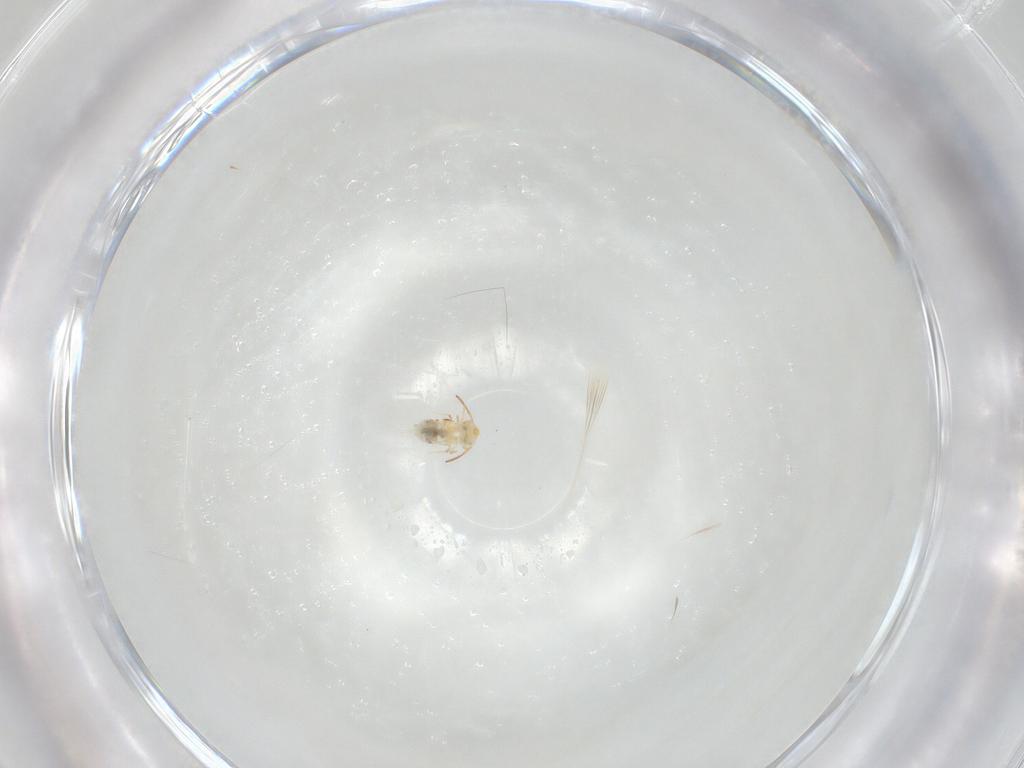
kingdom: Animalia
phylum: Arthropoda
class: Collembola
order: Symphypleona
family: Bourletiellidae
